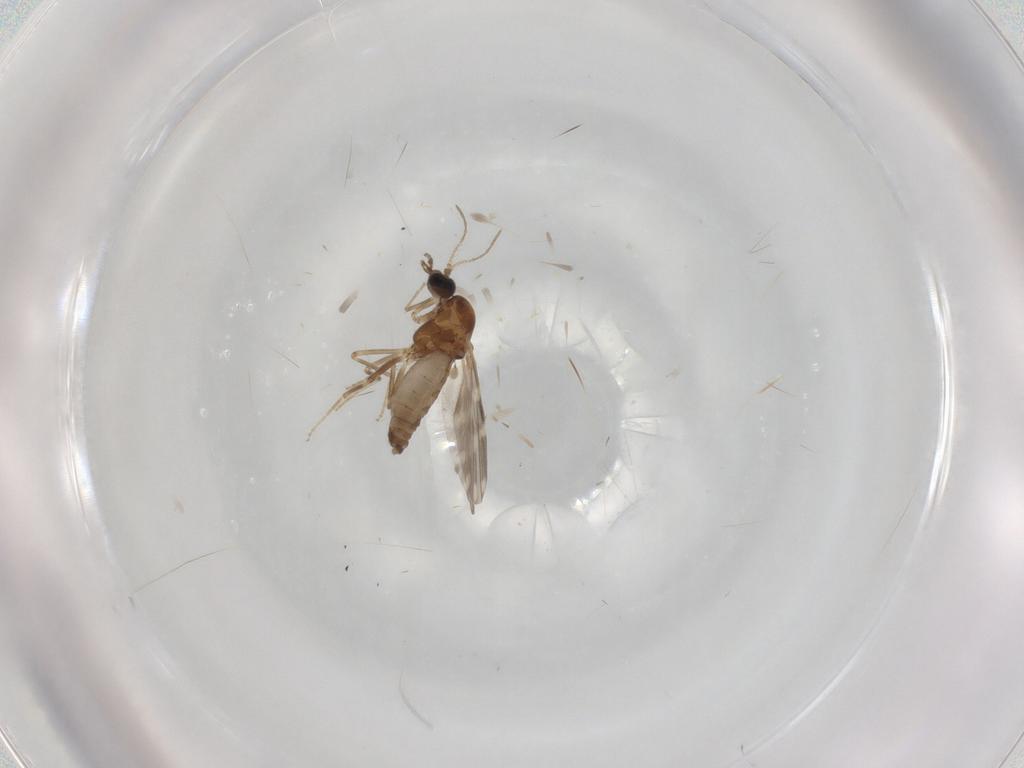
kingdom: Animalia
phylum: Arthropoda
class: Insecta
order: Diptera
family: Ceratopogonidae
